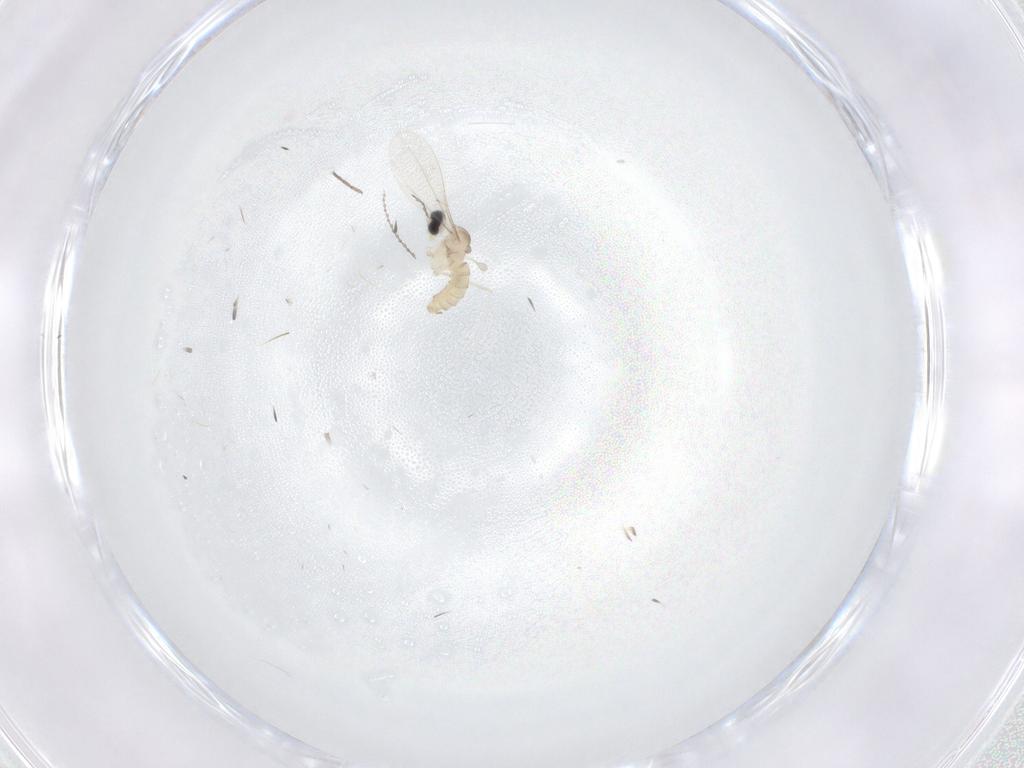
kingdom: Animalia
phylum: Arthropoda
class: Insecta
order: Diptera
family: Cecidomyiidae
